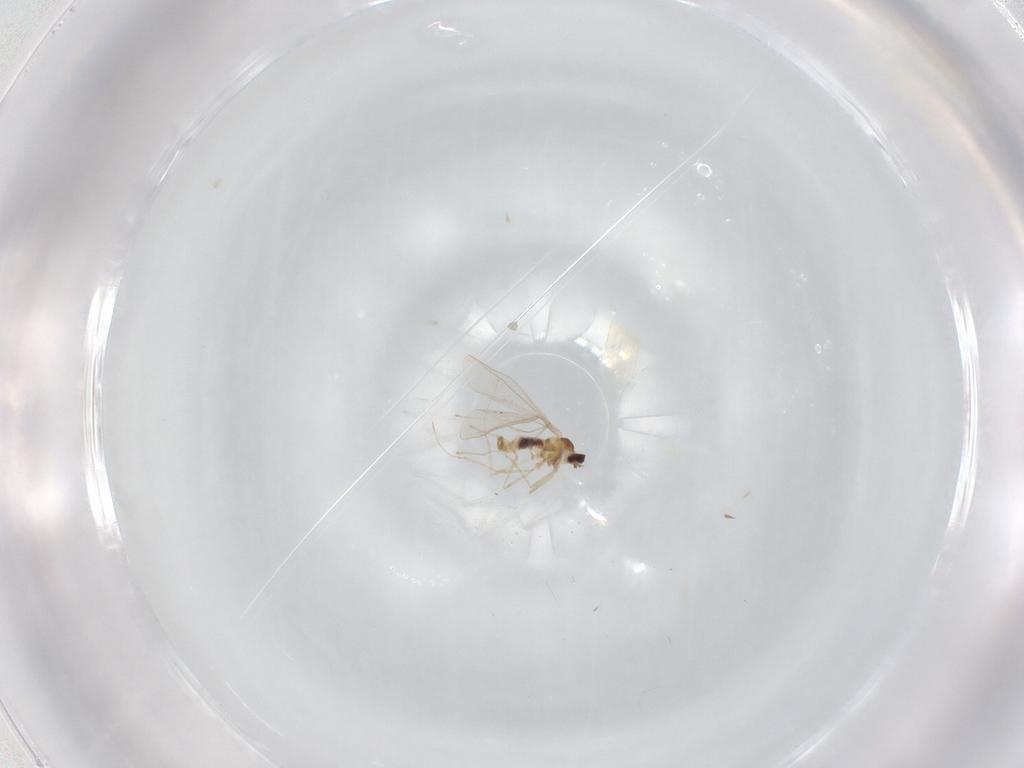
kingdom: Animalia
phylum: Arthropoda
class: Insecta
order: Diptera
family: Cecidomyiidae
